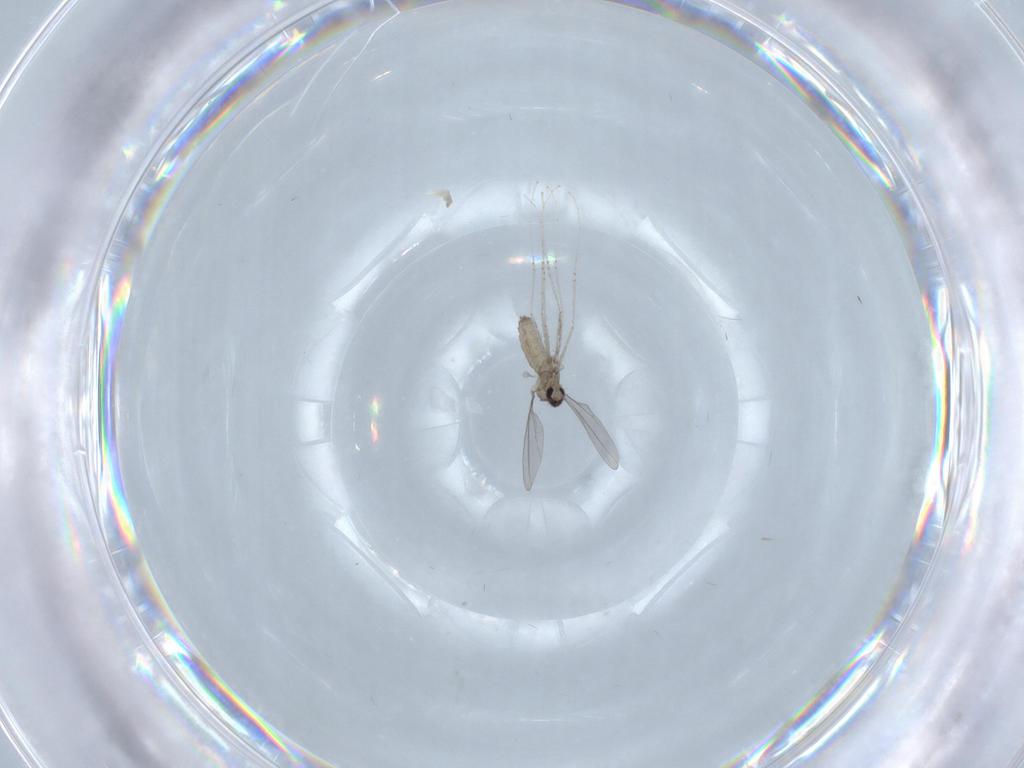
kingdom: Animalia
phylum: Arthropoda
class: Insecta
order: Diptera
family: Cecidomyiidae
